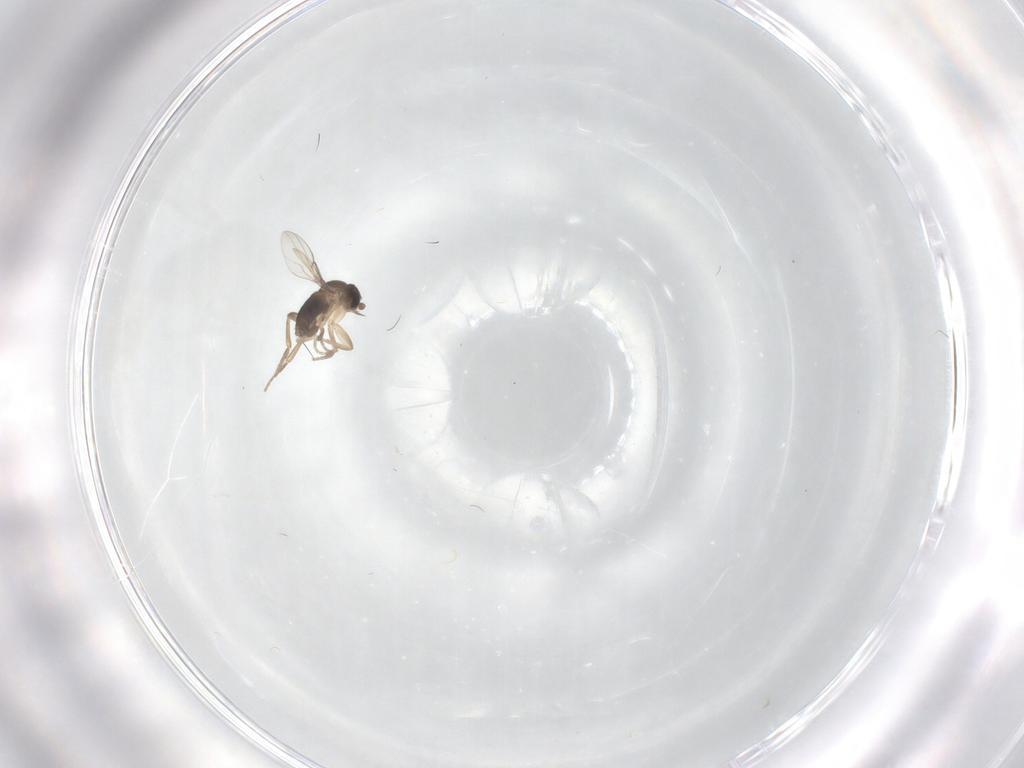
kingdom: Animalia
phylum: Arthropoda
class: Insecta
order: Diptera
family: Phoridae
